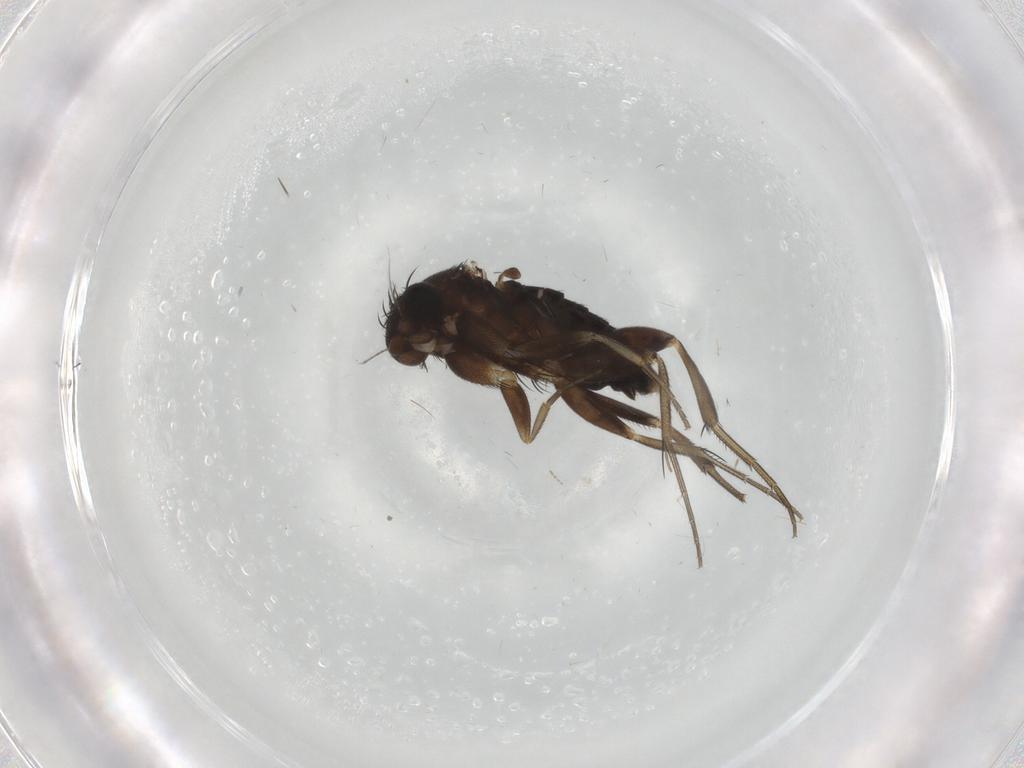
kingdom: Animalia
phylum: Arthropoda
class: Insecta
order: Diptera
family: Phoridae
